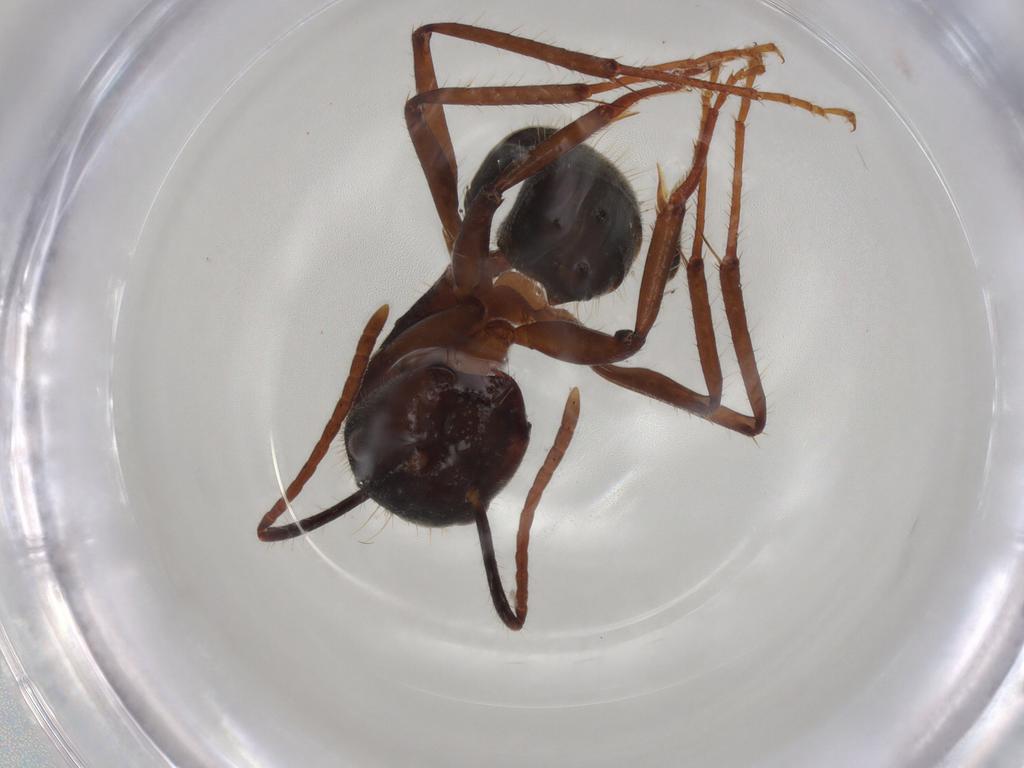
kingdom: Animalia
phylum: Arthropoda
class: Insecta
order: Hymenoptera
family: Formicidae
